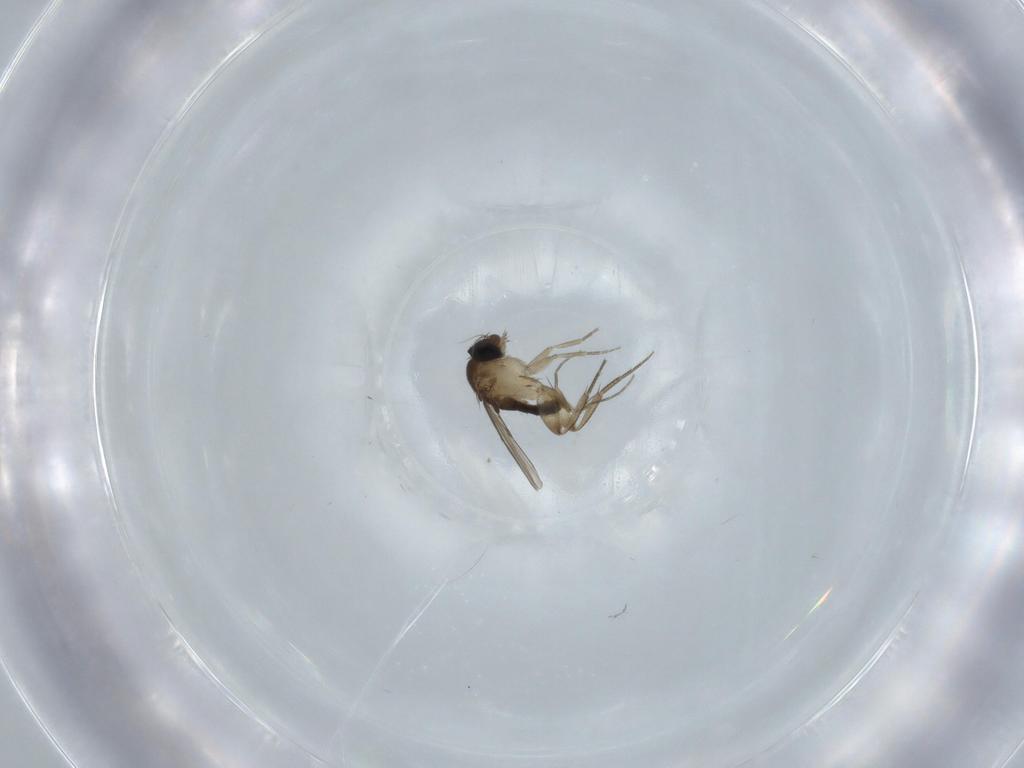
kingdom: Animalia
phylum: Arthropoda
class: Insecta
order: Diptera
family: Phoridae
